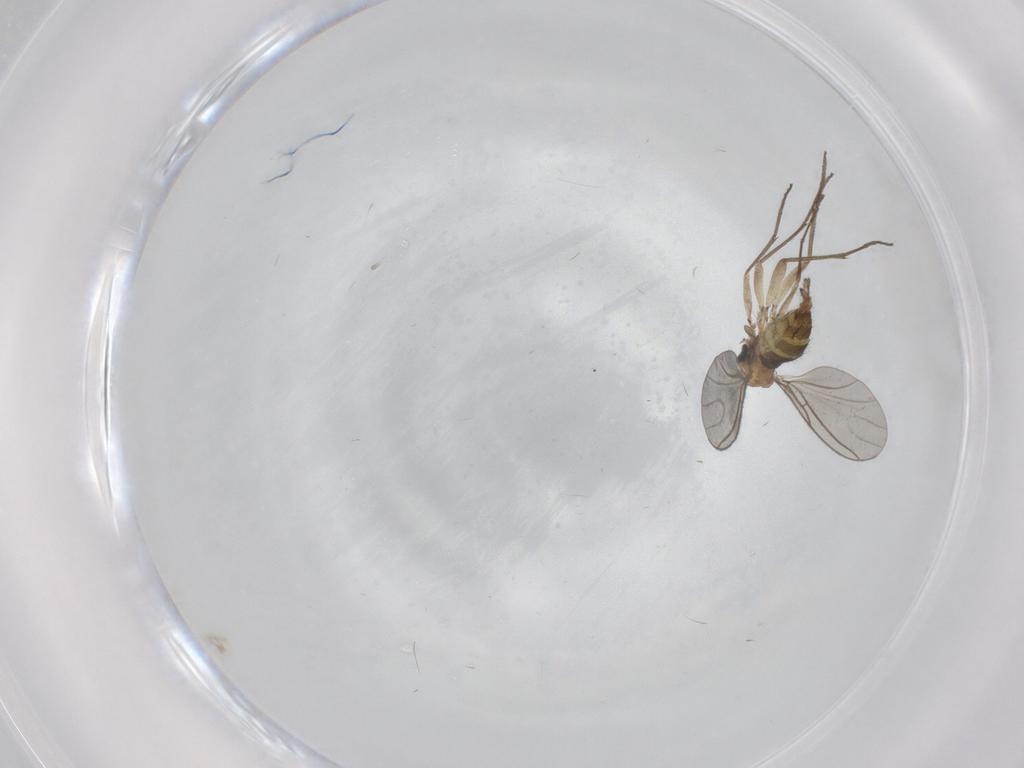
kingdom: Animalia
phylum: Arthropoda
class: Insecta
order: Diptera
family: Sciaridae
